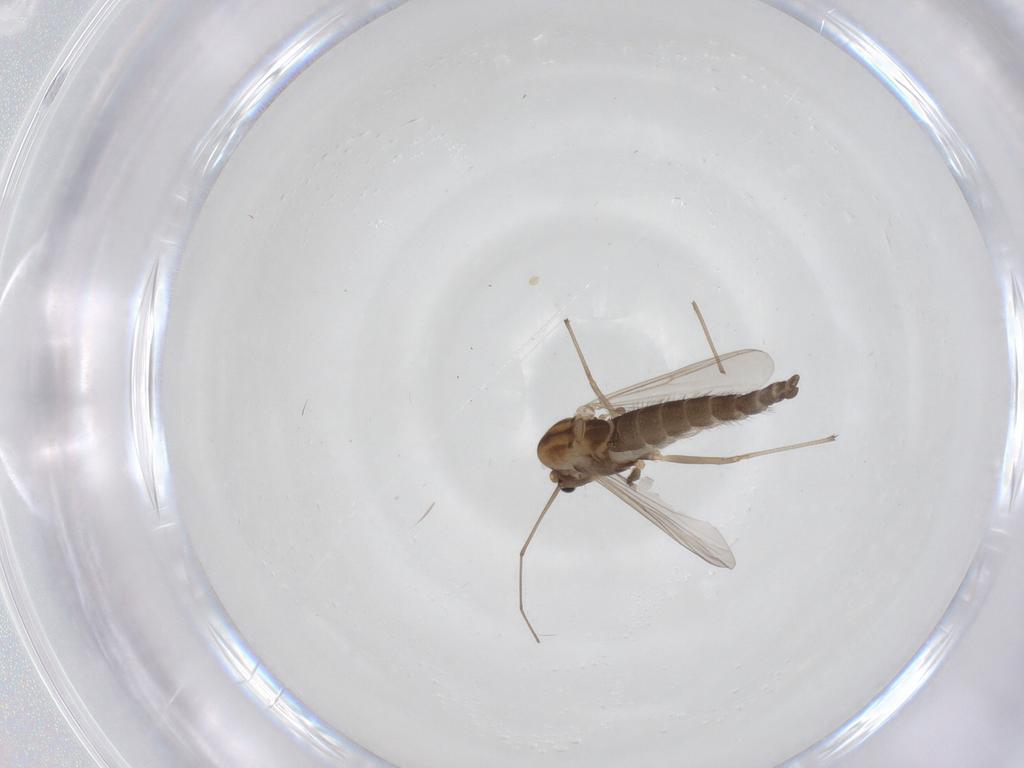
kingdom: Animalia
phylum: Arthropoda
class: Insecta
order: Diptera
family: Chironomidae
